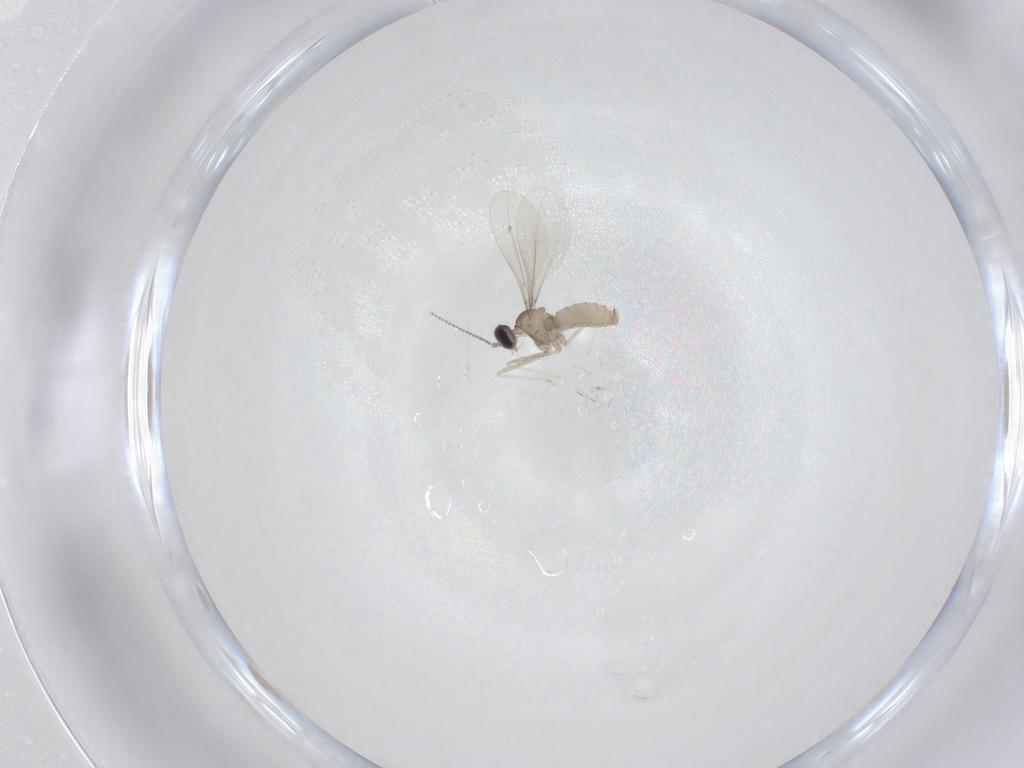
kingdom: Animalia
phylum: Arthropoda
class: Insecta
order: Diptera
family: Cecidomyiidae
